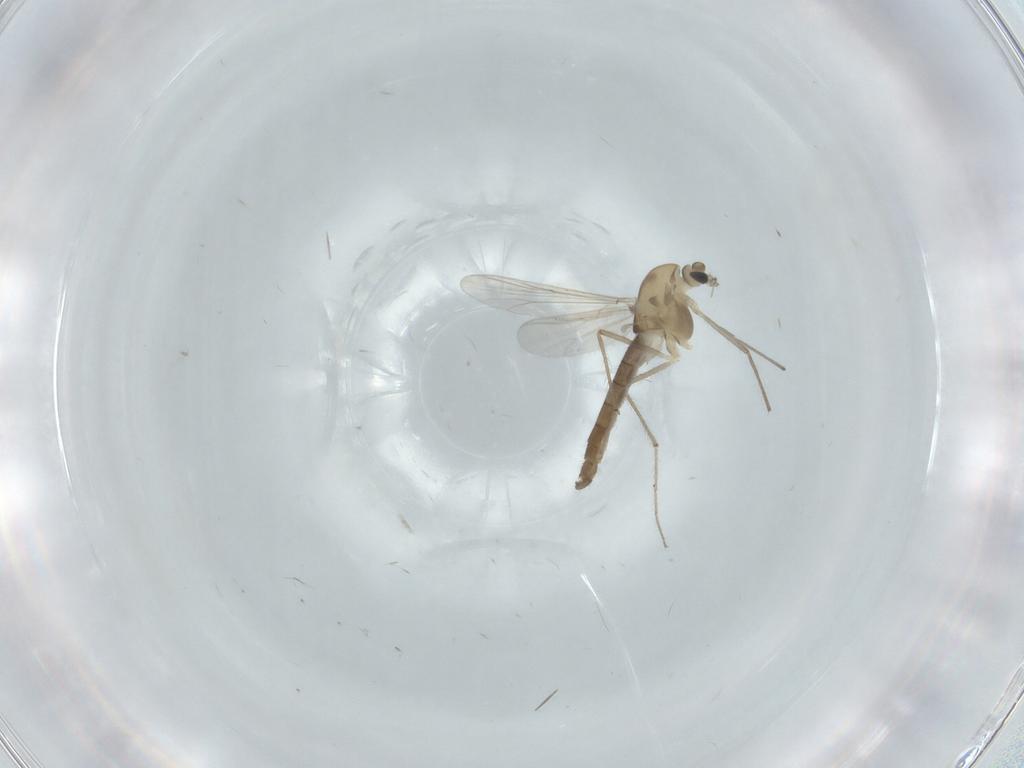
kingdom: Animalia
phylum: Arthropoda
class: Insecta
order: Diptera
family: Chironomidae
